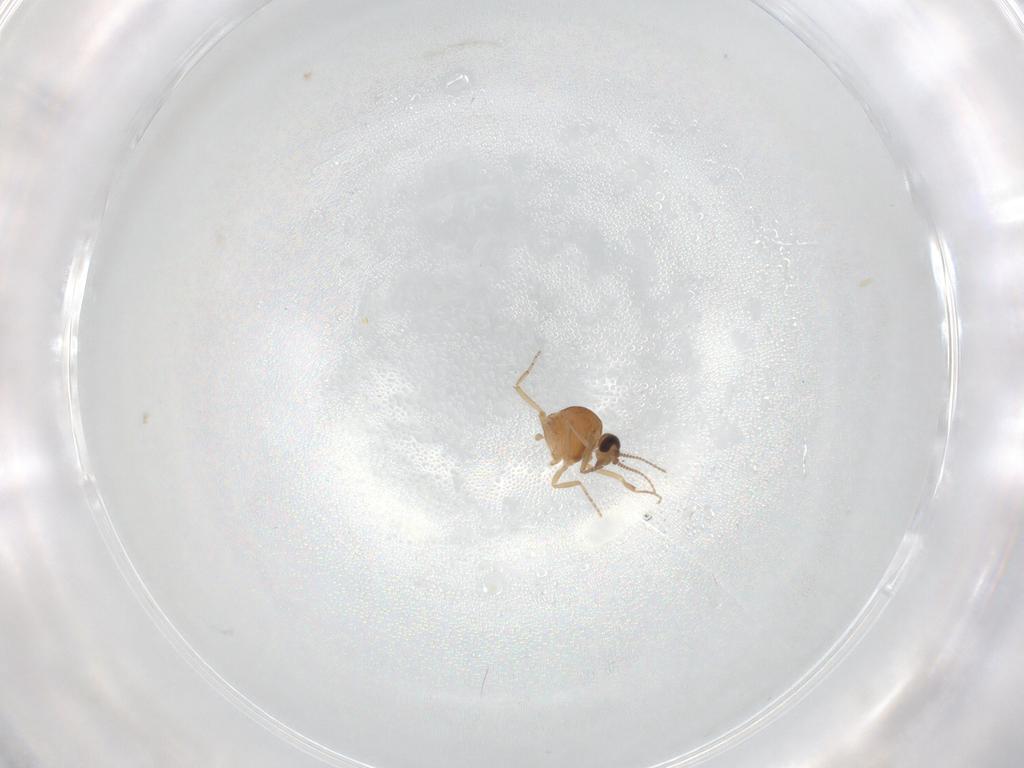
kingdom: Animalia
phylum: Arthropoda
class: Insecta
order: Diptera
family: Ceratopogonidae
